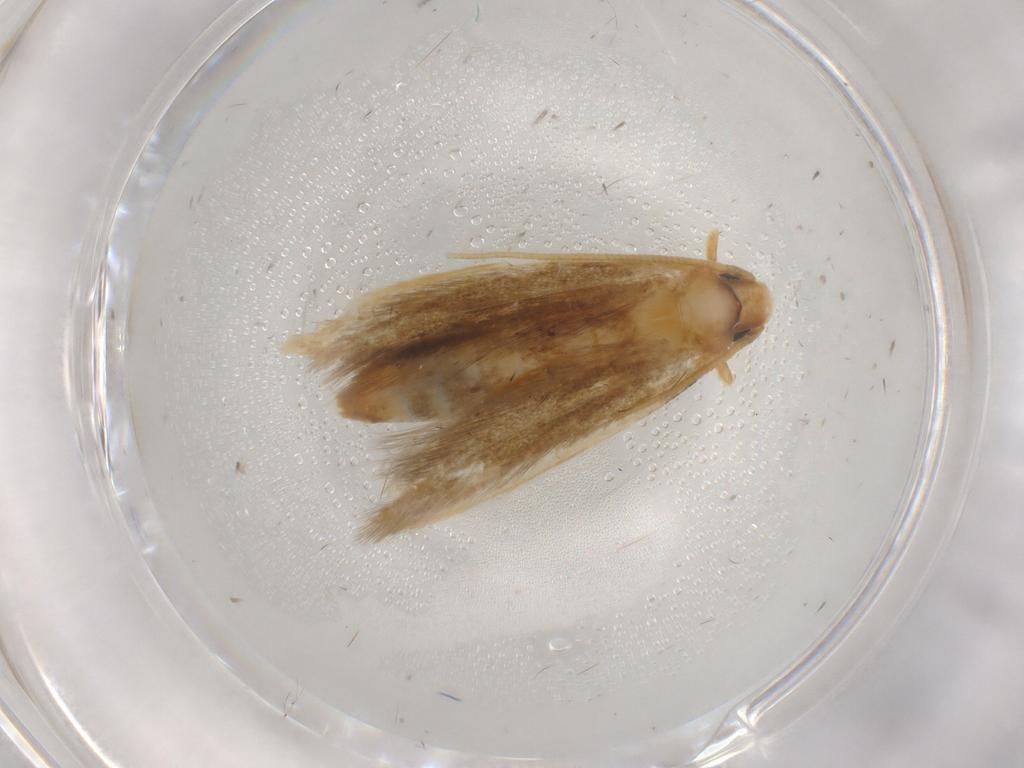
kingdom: Animalia
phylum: Arthropoda
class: Insecta
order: Lepidoptera
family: Tineidae
